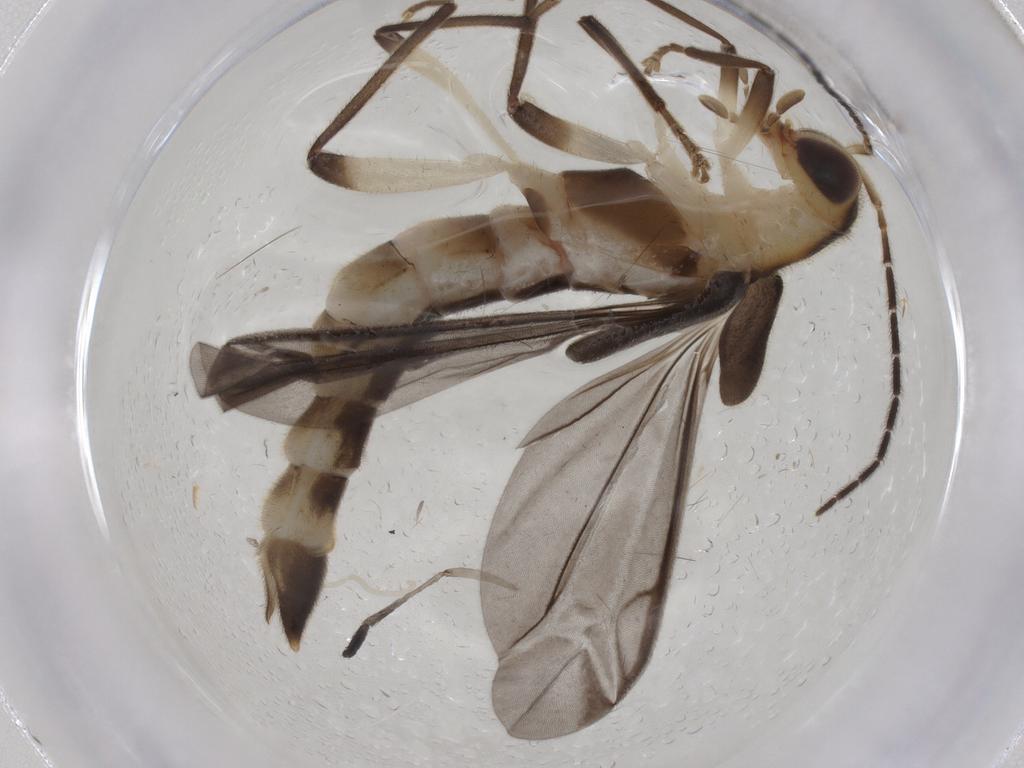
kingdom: Animalia
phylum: Arthropoda
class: Insecta
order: Coleoptera
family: Cantharidae
